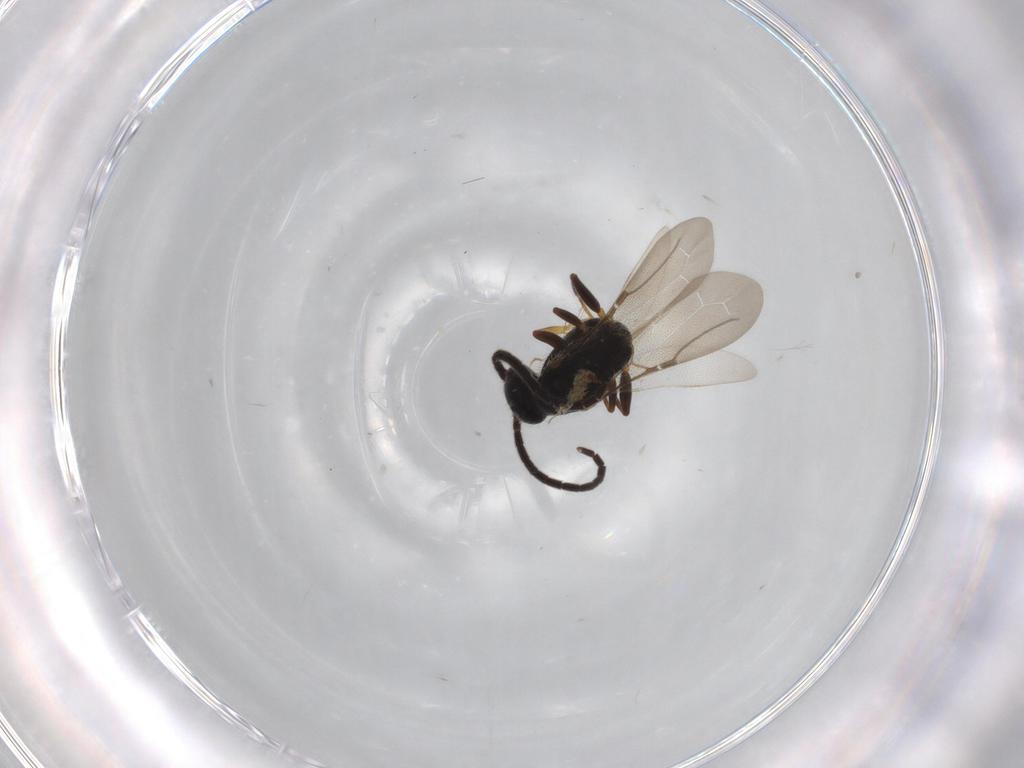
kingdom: Animalia
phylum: Arthropoda
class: Insecta
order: Hymenoptera
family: Bethylidae
